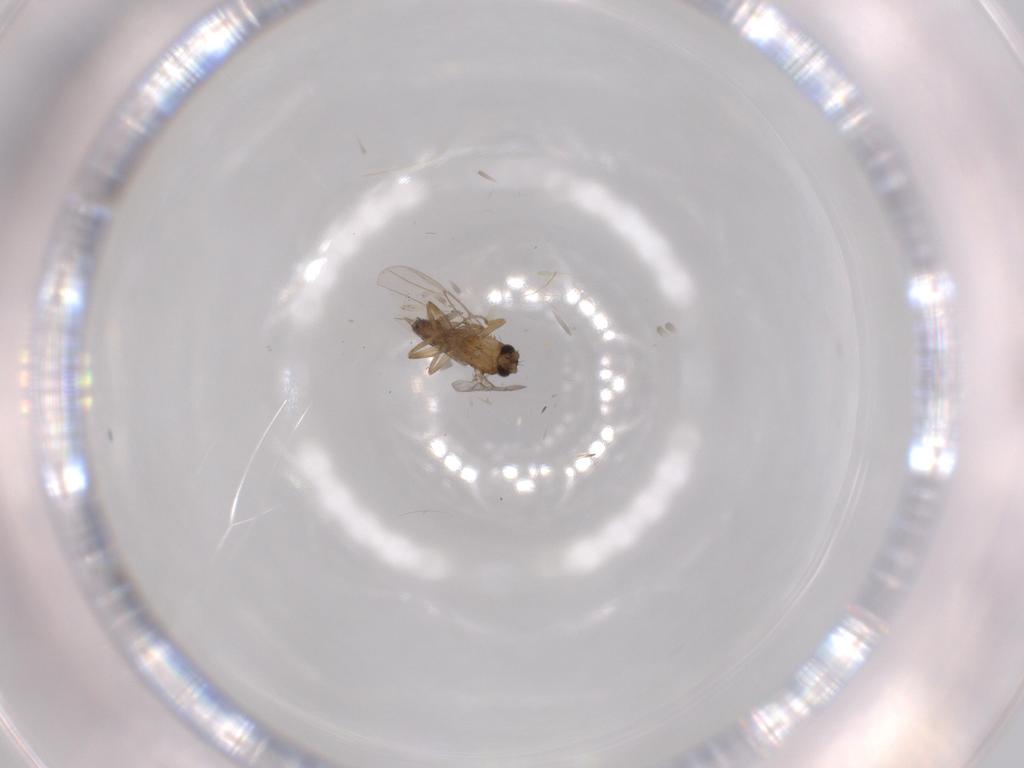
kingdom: Animalia
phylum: Arthropoda
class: Insecta
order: Diptera
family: Phoridae
